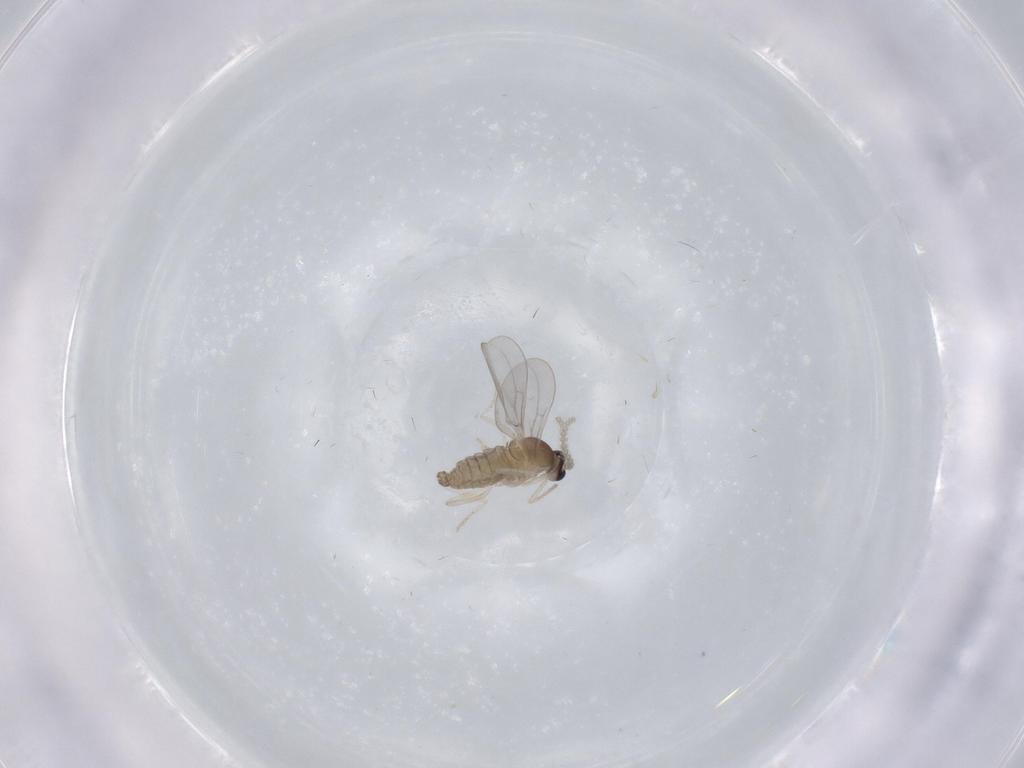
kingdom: Animalia
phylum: Arthropoda
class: Insecta
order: Diptera
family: Cecidomyiidae
